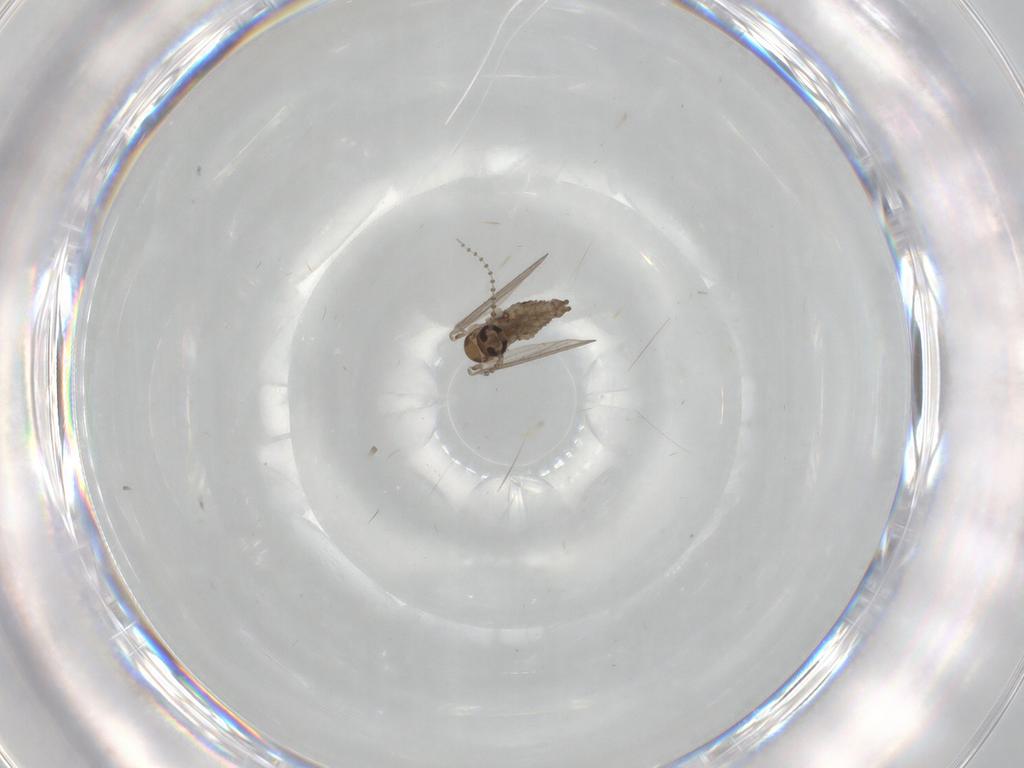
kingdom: Animalia
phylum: Arthropoda
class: Insecta
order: Diptera
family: Psychodidae
